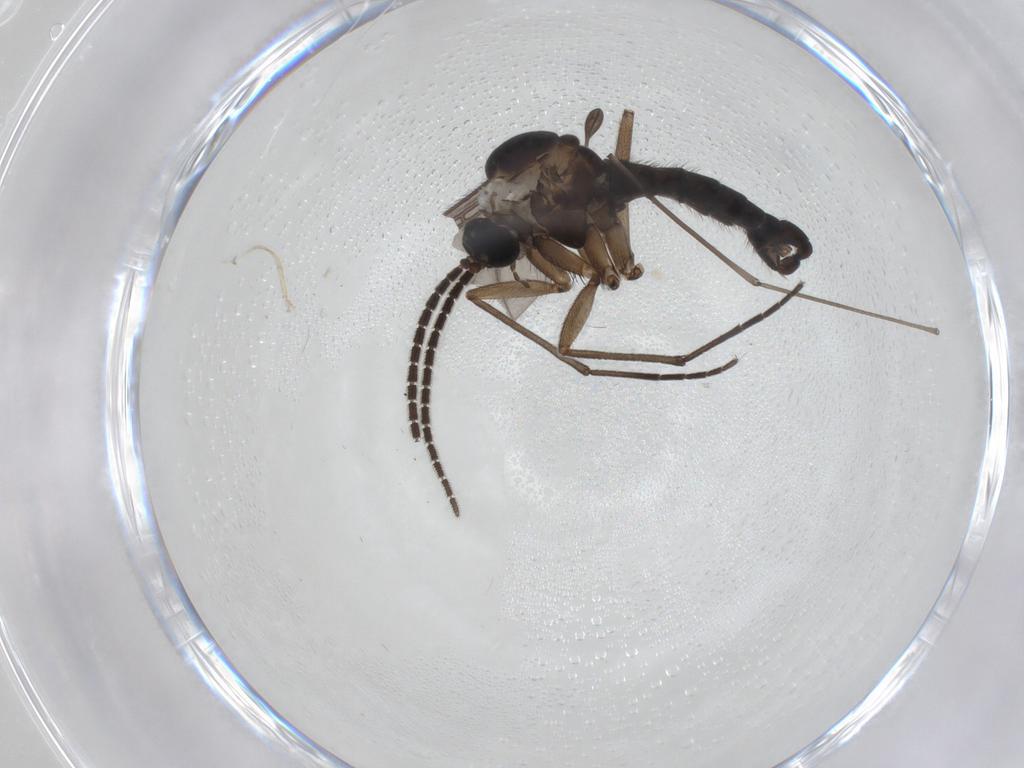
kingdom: Animalia
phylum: Arthropoda
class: Insecta
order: Diptera
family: Sciaridae
